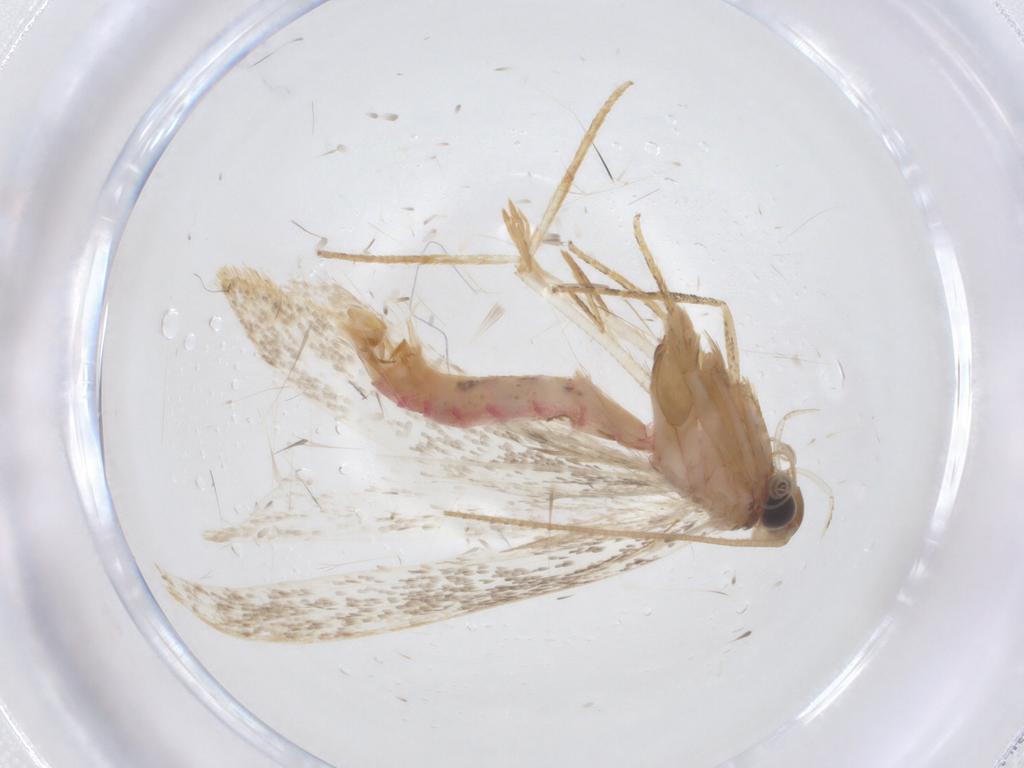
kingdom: Animalia
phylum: Arthropoda
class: Insecta
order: Lepidoptera
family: Crambidae
